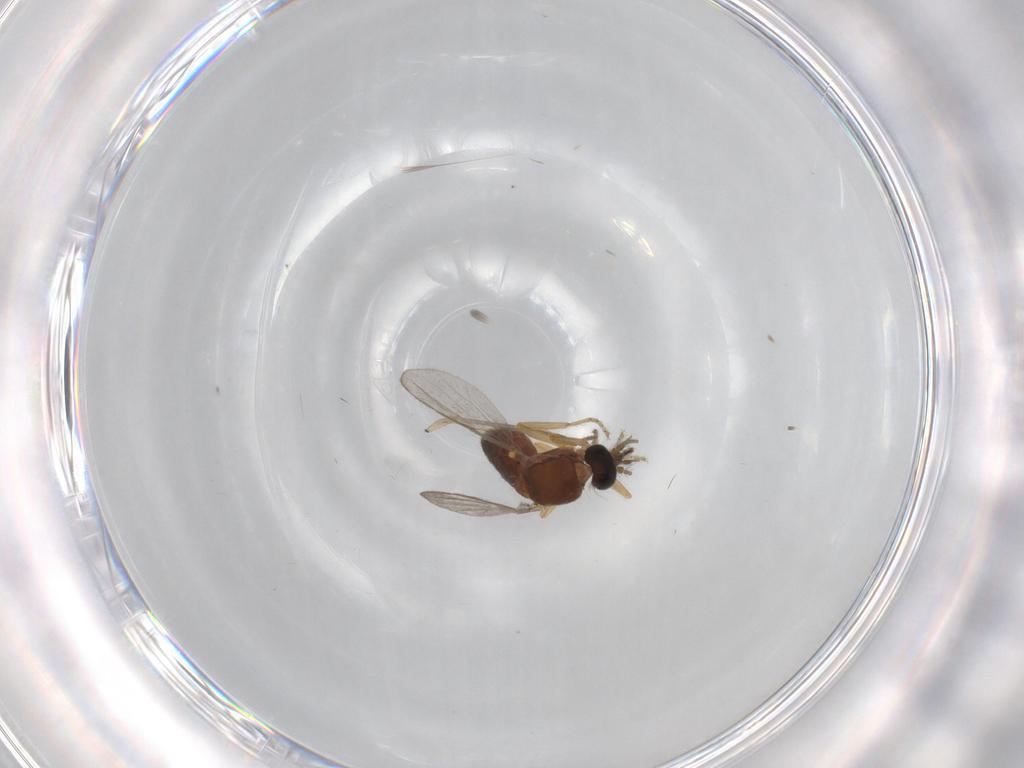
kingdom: Animalia
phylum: Arthropoda
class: Insecta
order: Diptera
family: Ceratopogonidae
